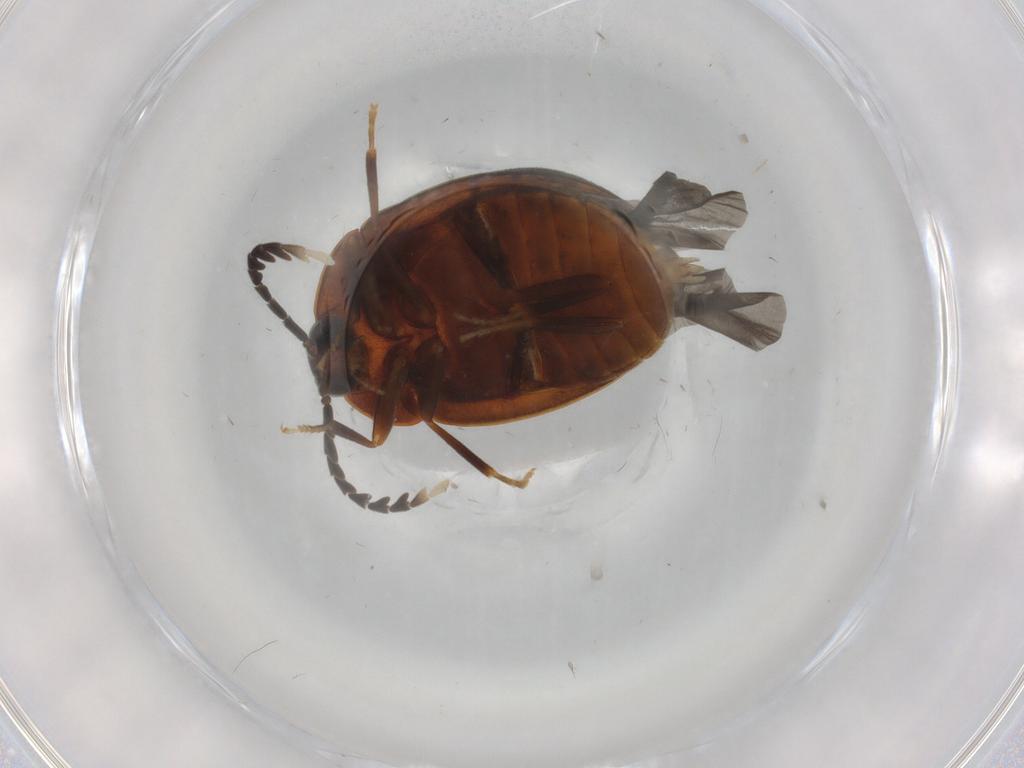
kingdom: Animalia
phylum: Arthropoda
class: Insecta
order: Coleoptera
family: Psephenidae
